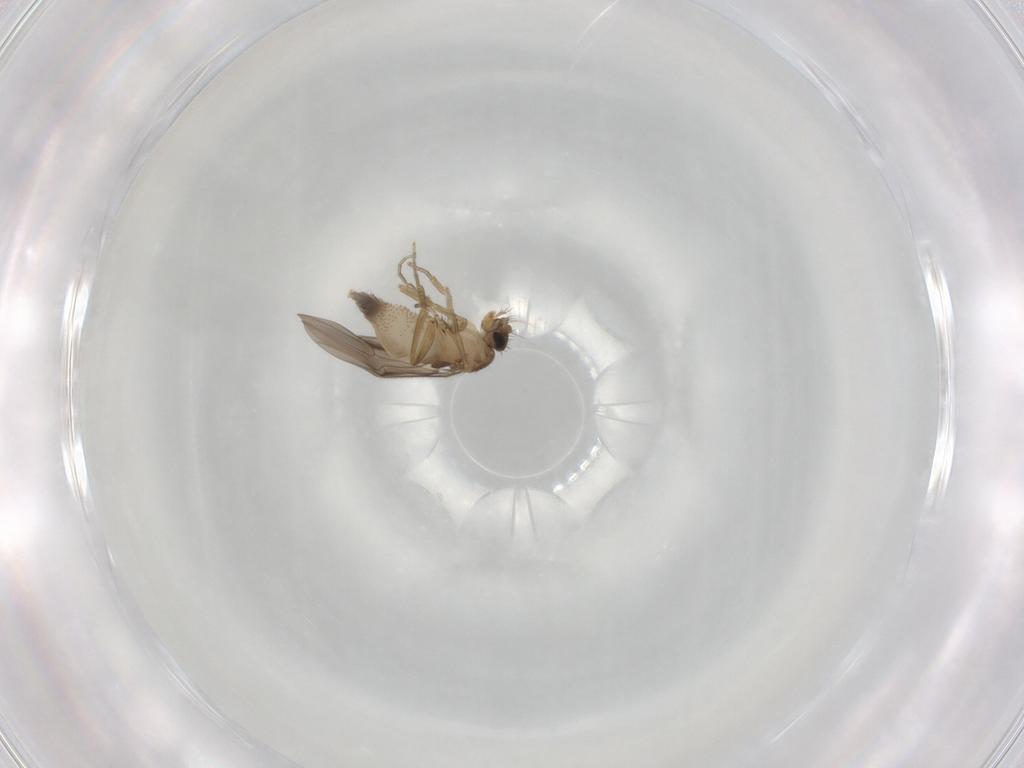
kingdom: Animalia
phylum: Arthropoda
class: Insecta
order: Diptera
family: Phoridae
